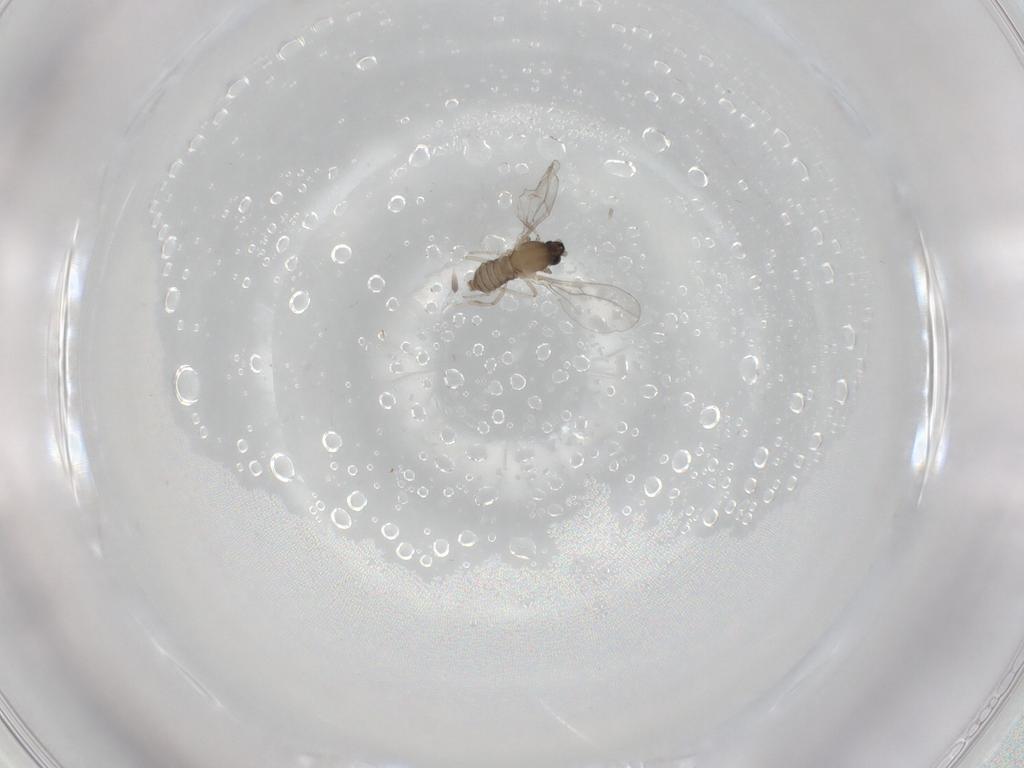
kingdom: Animalia
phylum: Arthropoda
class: Insecta
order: Diptera
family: Cecidomyiidae
